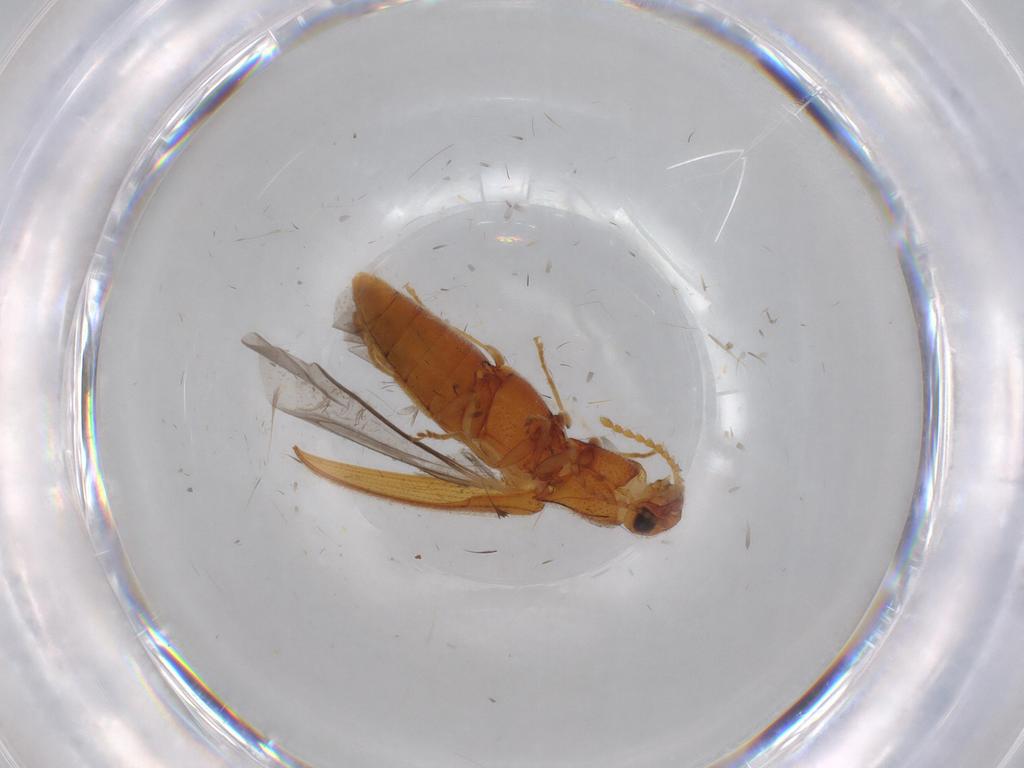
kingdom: Animalia
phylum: Arthropoda
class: Insecta
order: Coleoptera
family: Elateridae
